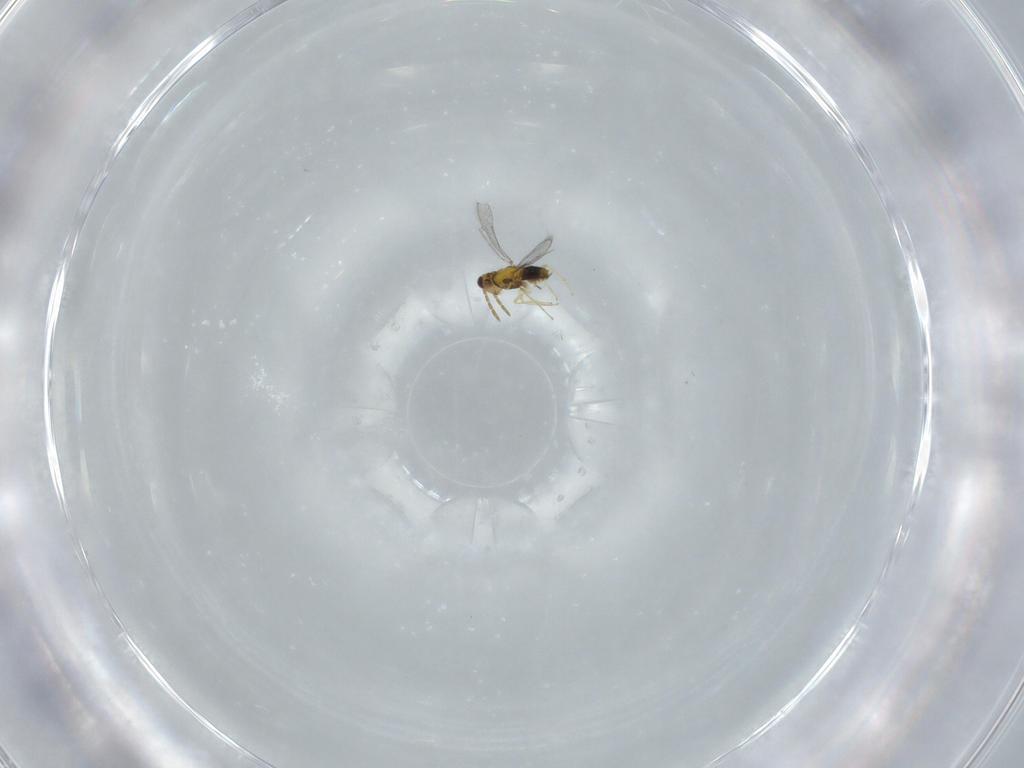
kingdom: Animalia
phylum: Arthropoda
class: Insecta
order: Hymenoptera
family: Aphelinidae
